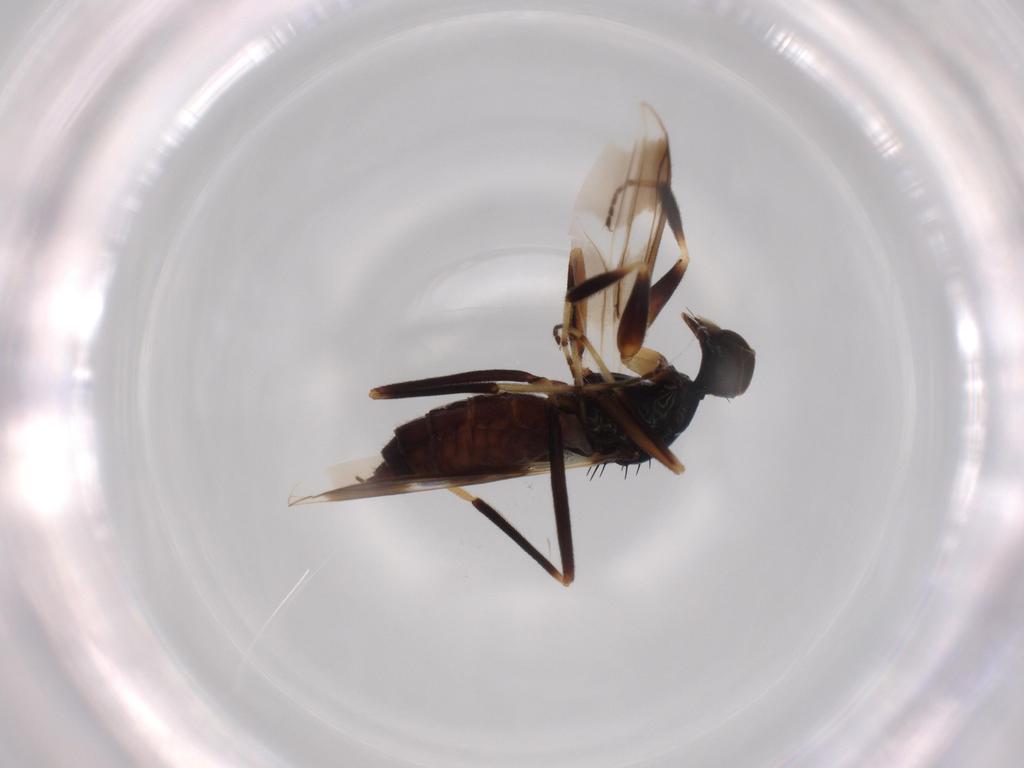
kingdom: Animalia
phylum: Arthropoda
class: Insecta
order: Diptera
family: Hybotidae
